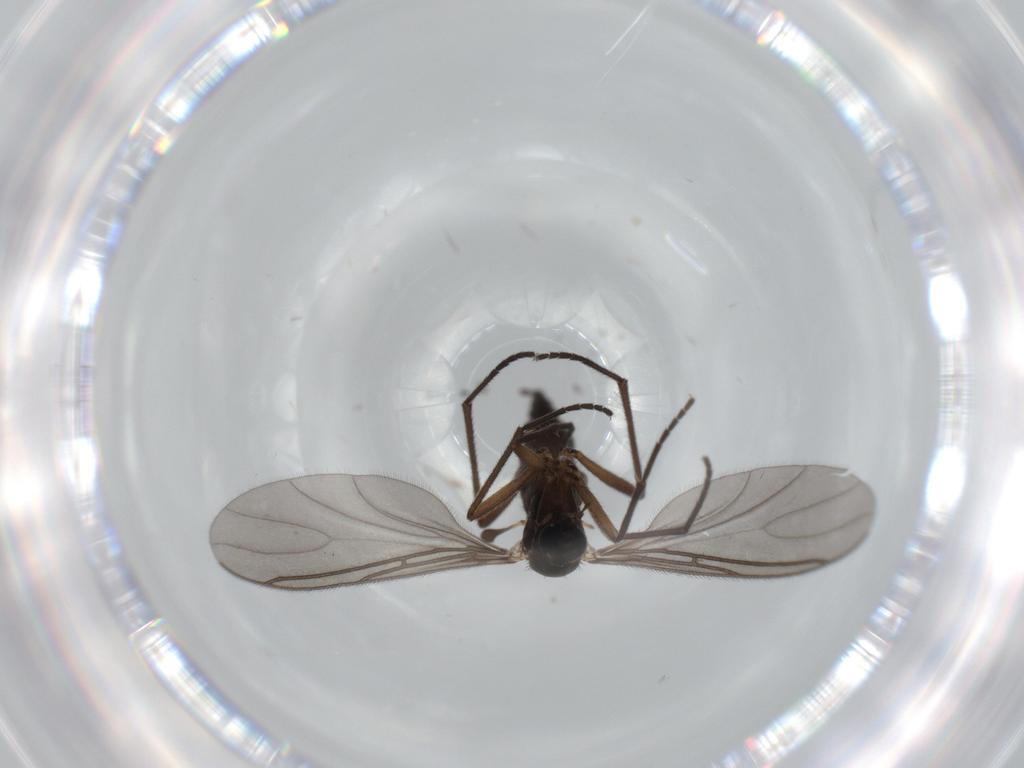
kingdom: Animalia
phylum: Arthropoda
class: Insecta
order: Diptera
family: Sciaridae
